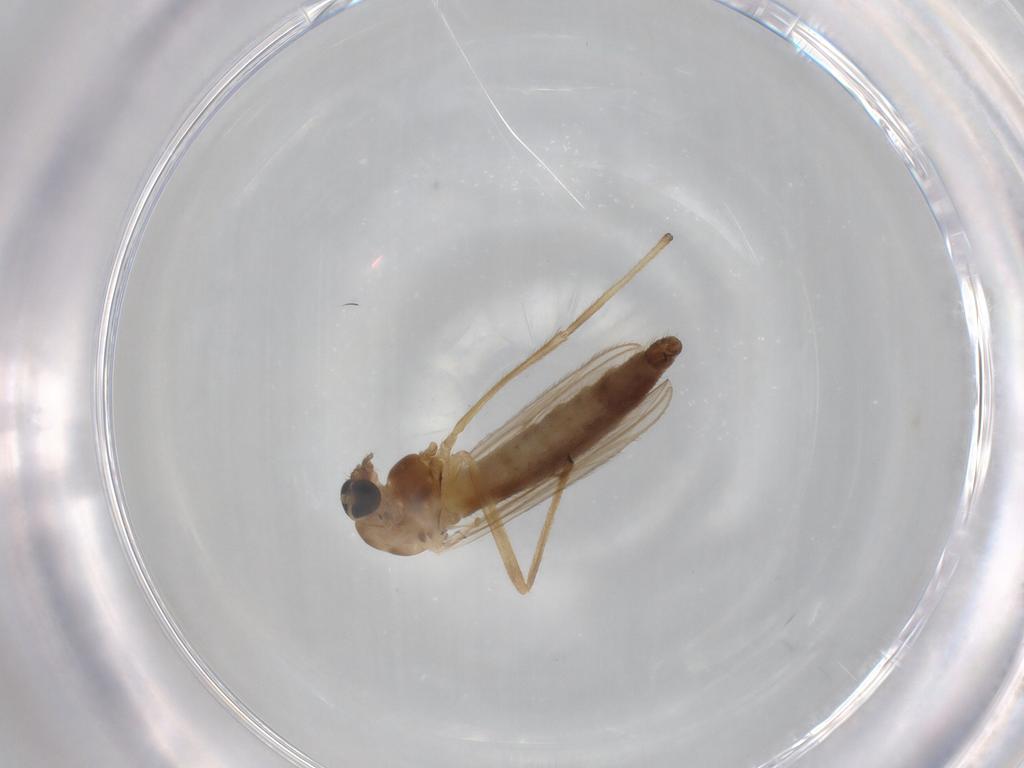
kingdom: Animalia
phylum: Arthropoda
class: Insecta
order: Diptera
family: Chironomidae
